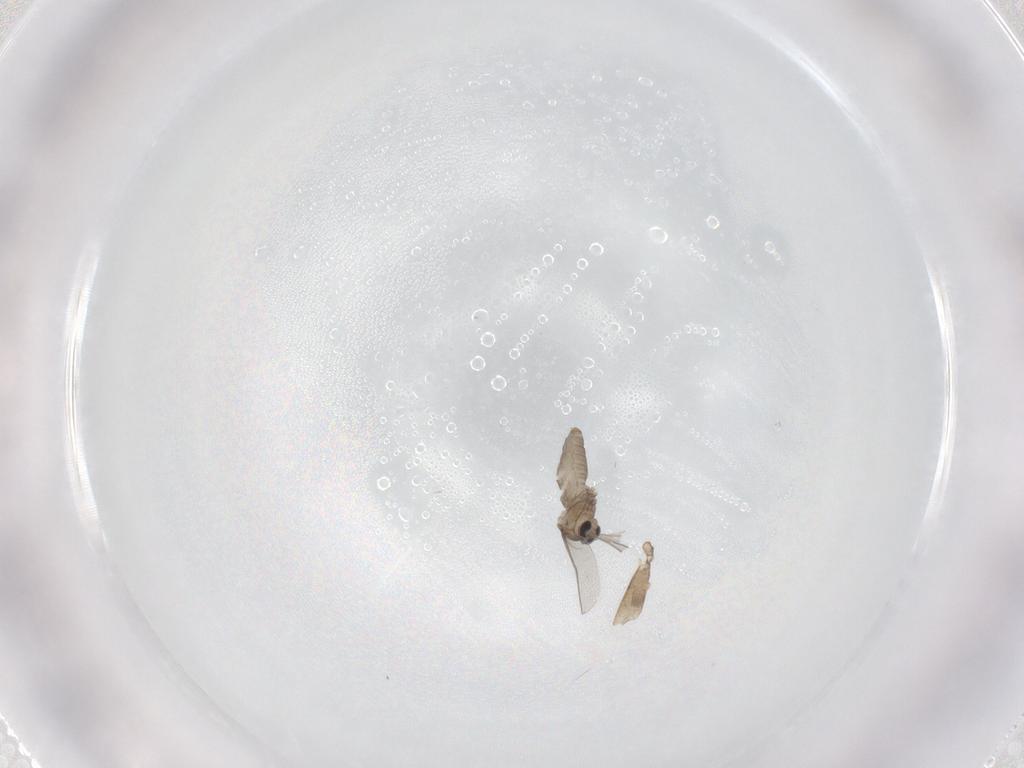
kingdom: Animalia
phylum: Arthropoda
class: Insecta
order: Diptera
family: Cecidomyiidae
